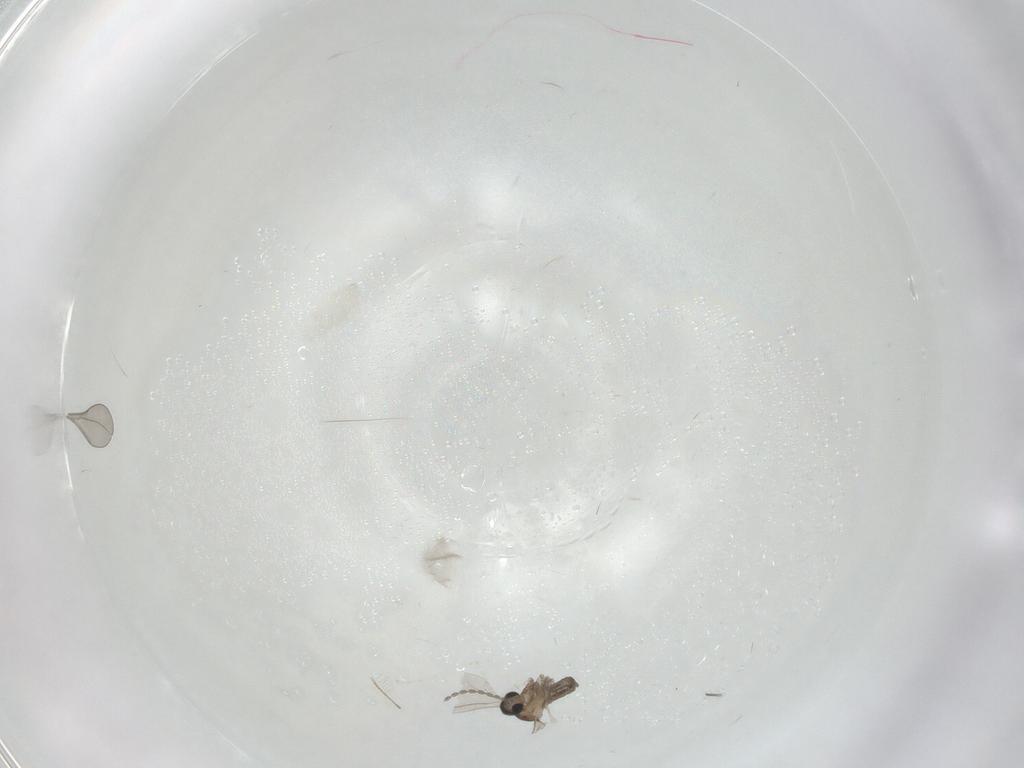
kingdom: Animalia
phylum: Arthropoda
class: Insecta
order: Diptera
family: Cecidomyiidae
